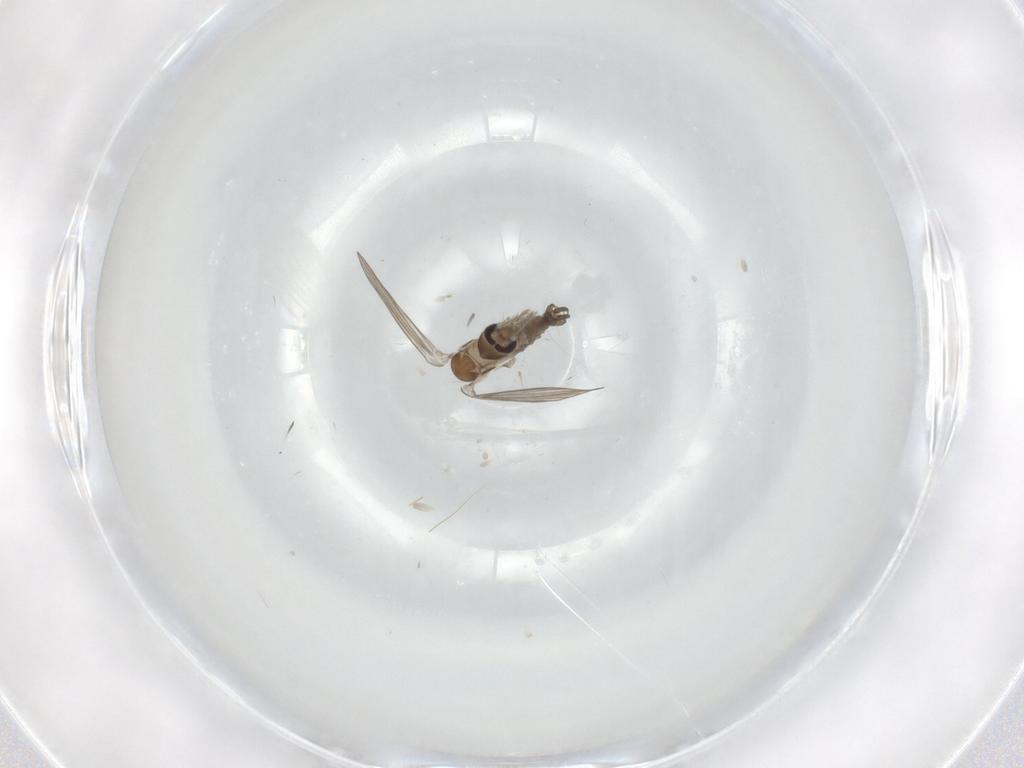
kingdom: Animalia
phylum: Arthropoda
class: Insecta
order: Diptera
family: Psychodidae
